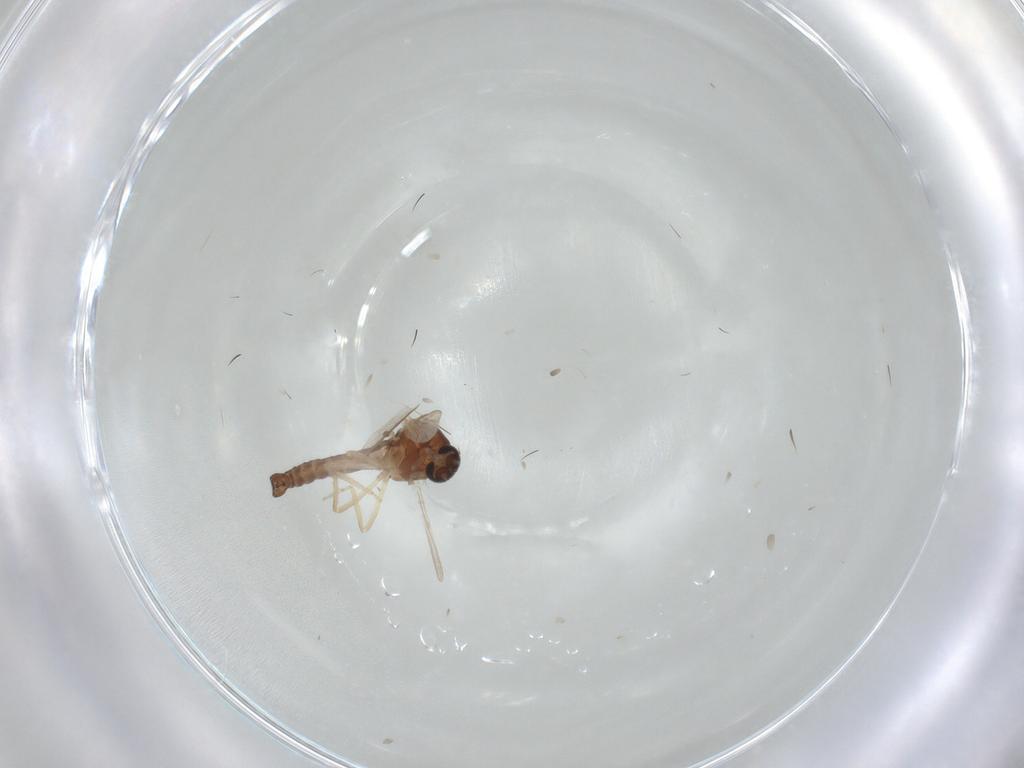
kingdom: Animalia
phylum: Arthropoda
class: Insecta
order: Diptera
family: Ceratopogonidae
